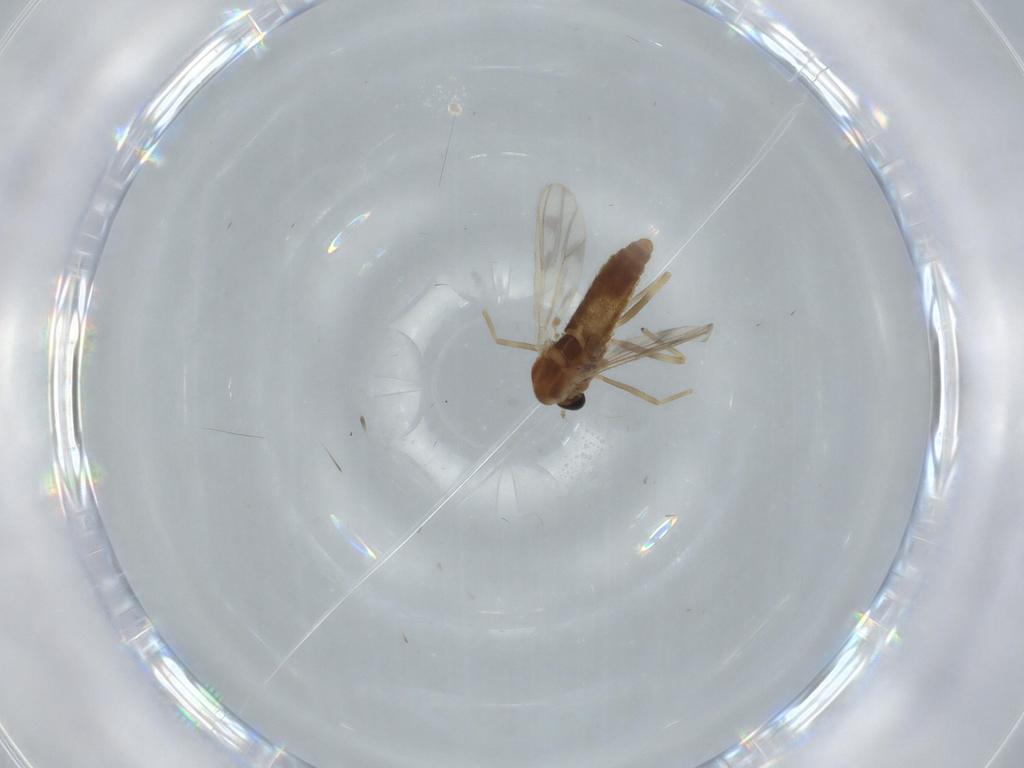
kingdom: Animalia
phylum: Arthropoda
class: Insecta
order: Diptera
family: Chironomidae
